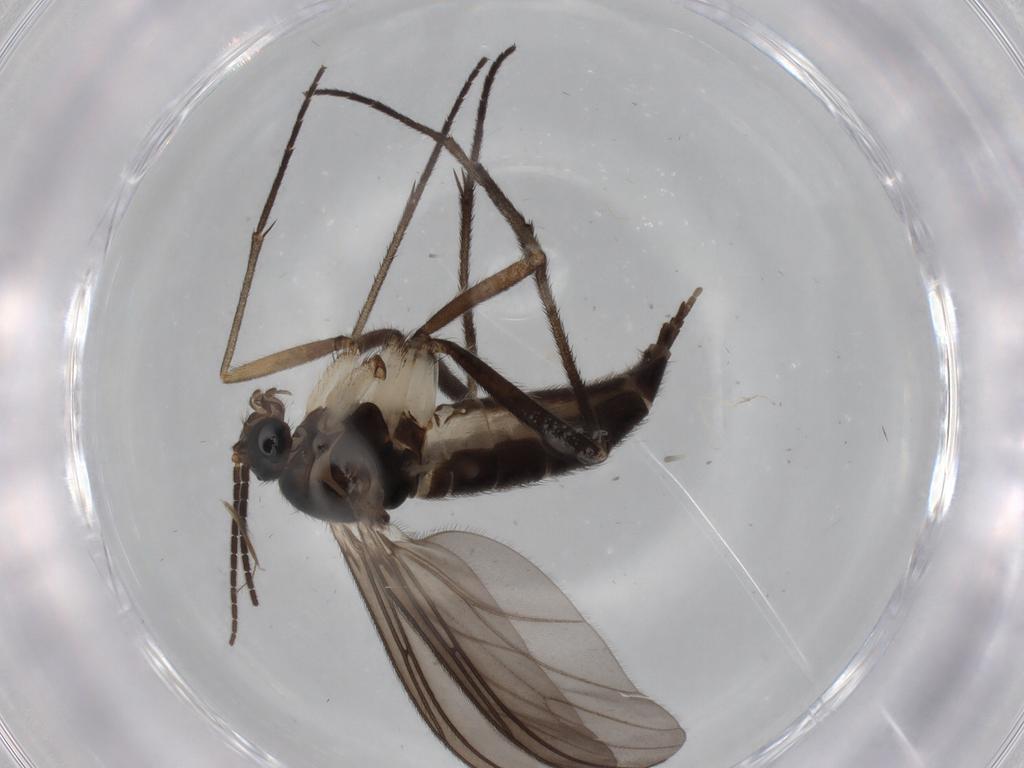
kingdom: Animalia
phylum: Arthropoda
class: Insecta
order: Diptera
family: Sciaridae
